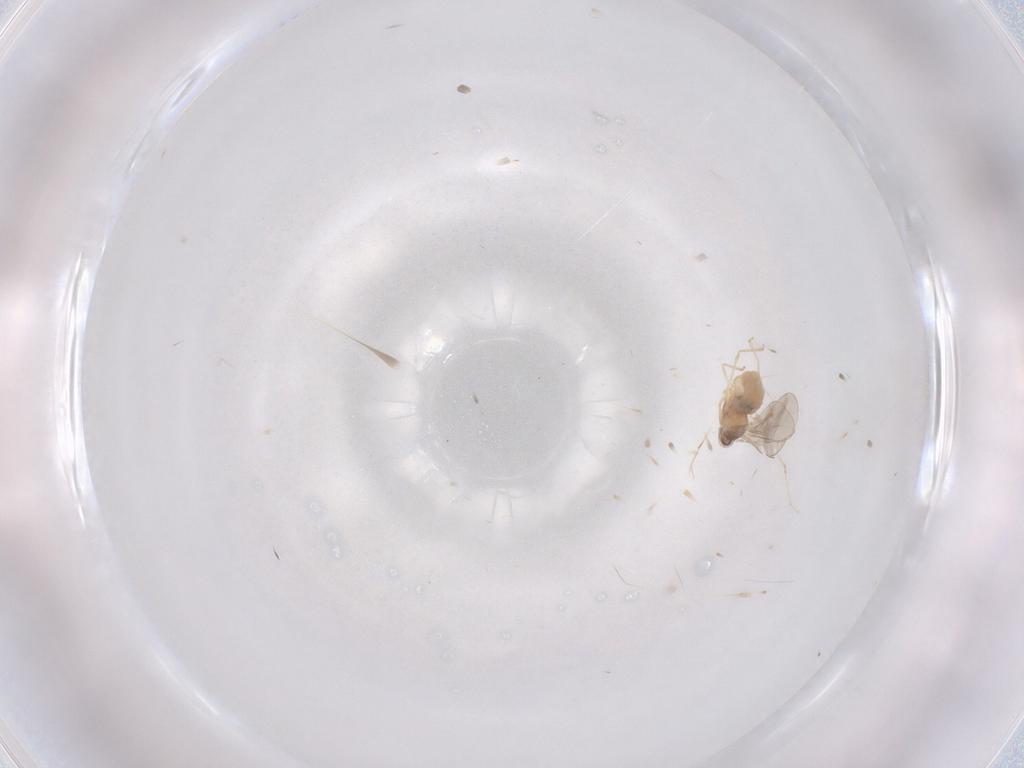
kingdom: Animalia
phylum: Arthropoda
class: Insecta
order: Diptera
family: Cecidomyiidae
